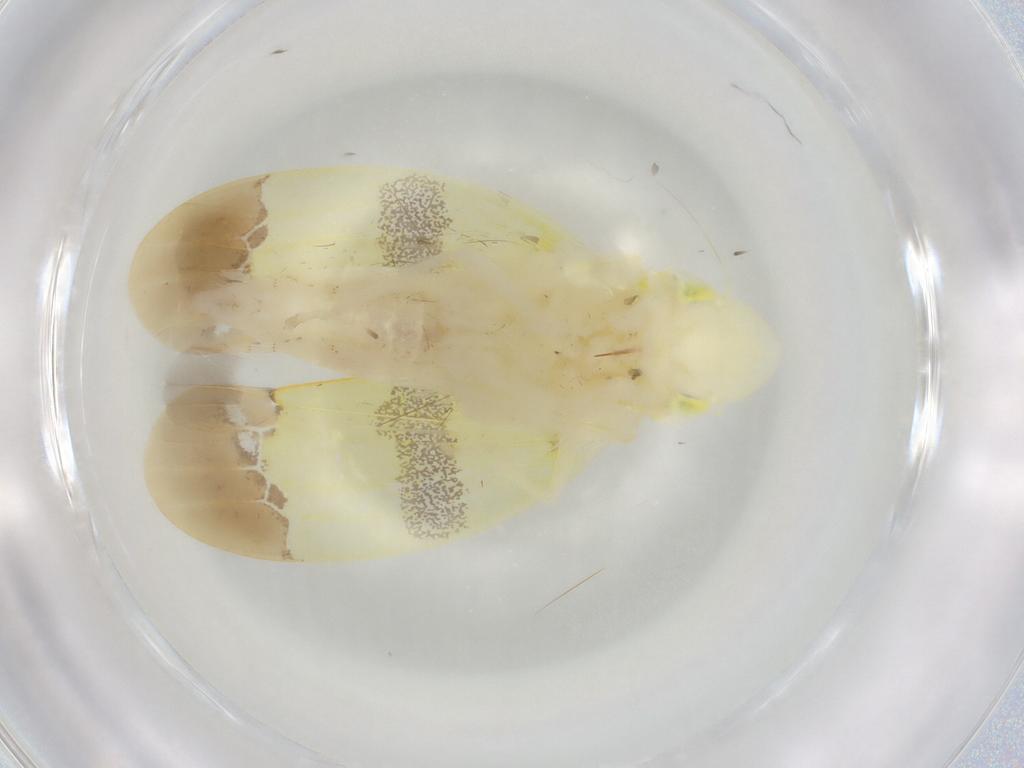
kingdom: Animalia
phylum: Arthropoda
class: Insecta
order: Hemiptera
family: Cicadellidae
